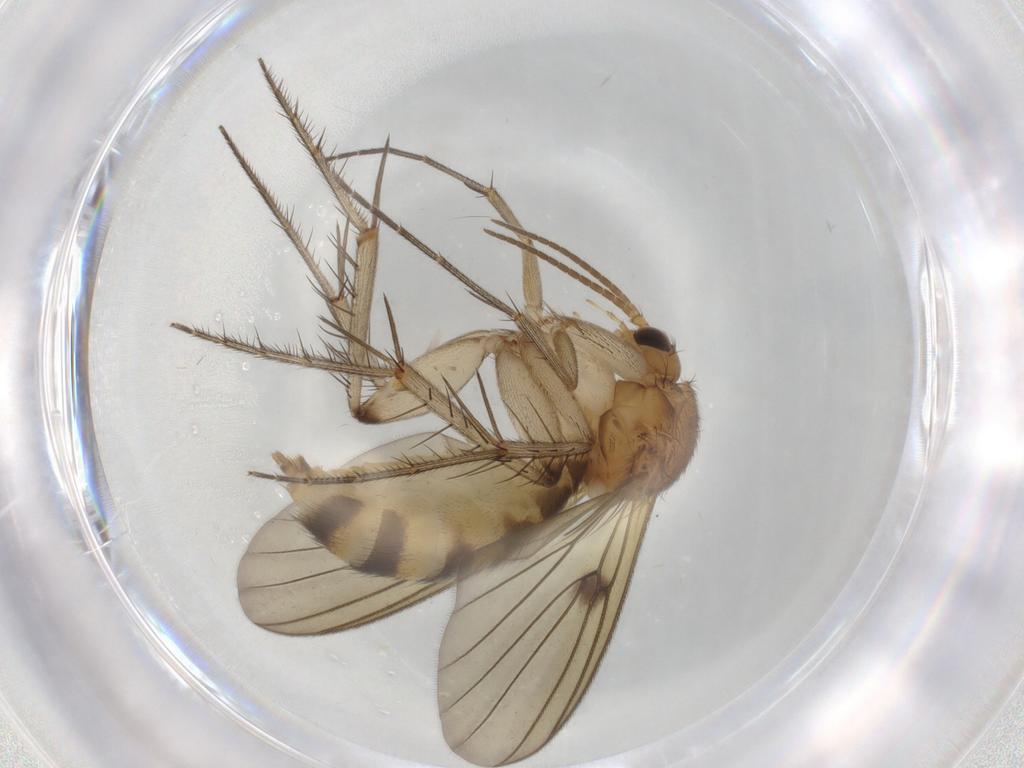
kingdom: Animalia
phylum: Arthropoda
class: Insecta
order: Diptera
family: Mycetophilidae
